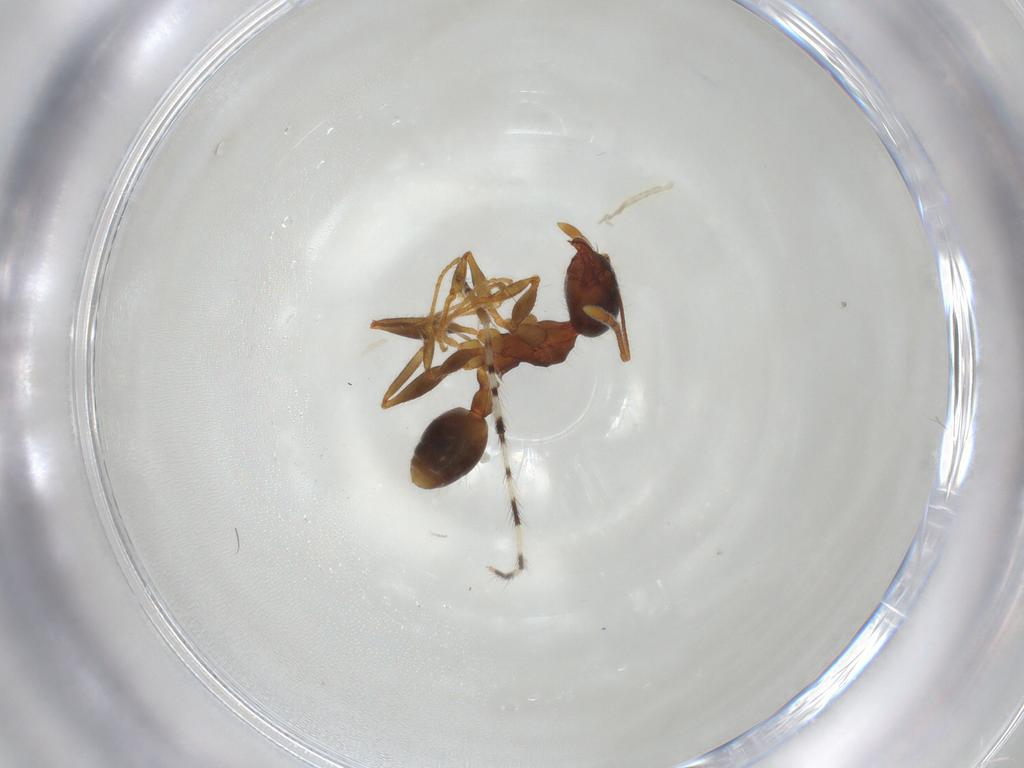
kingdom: Animalia
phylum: Arthropoda
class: Insecta
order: Diptera
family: Chironomidae
